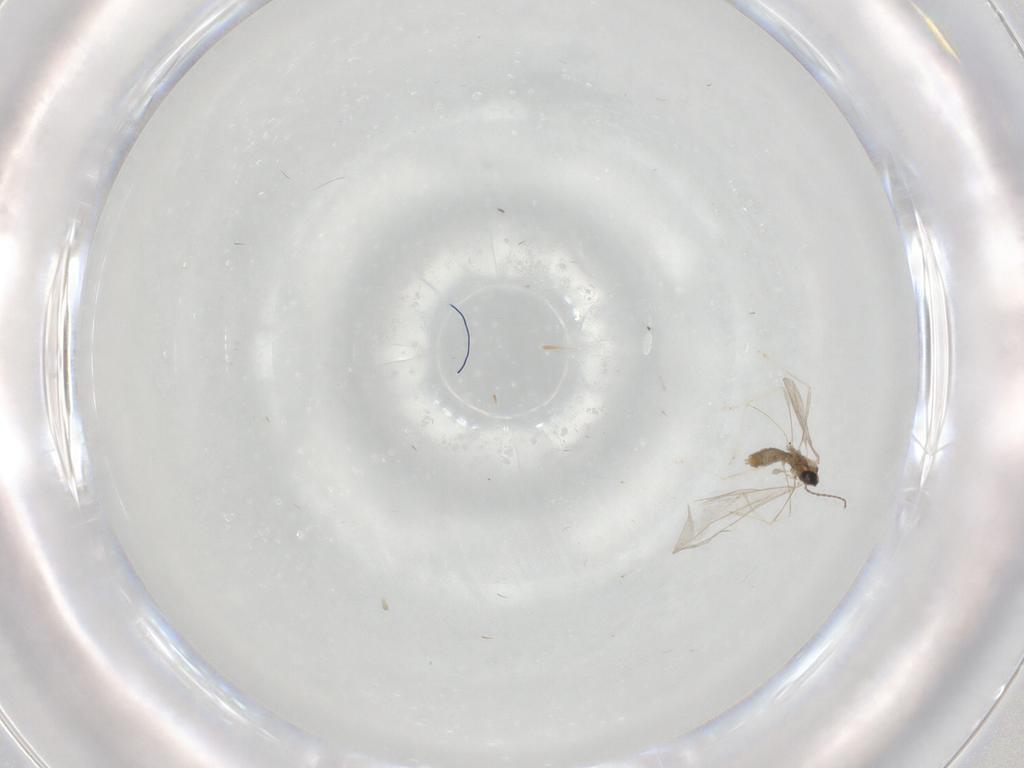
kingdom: Animalia
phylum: Arthropoda
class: Insecta
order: Diptera
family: Cecidomyiidae
